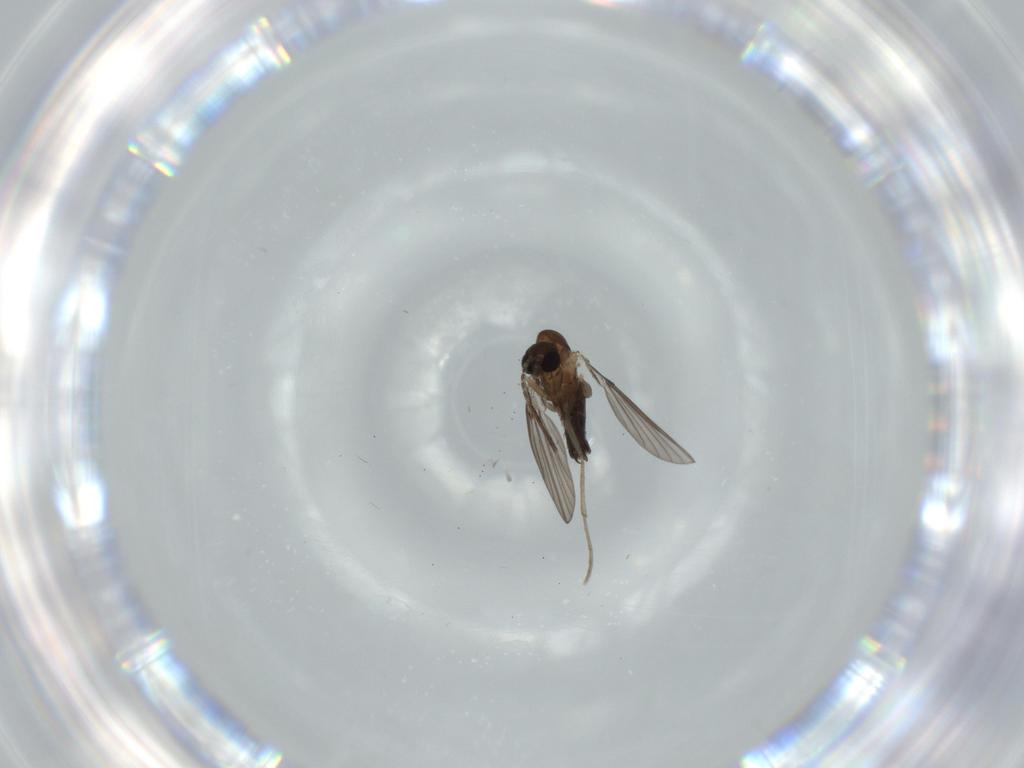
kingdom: Animalia
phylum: Arthropoda
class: Insecta
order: Diptera
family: Psychodidae
